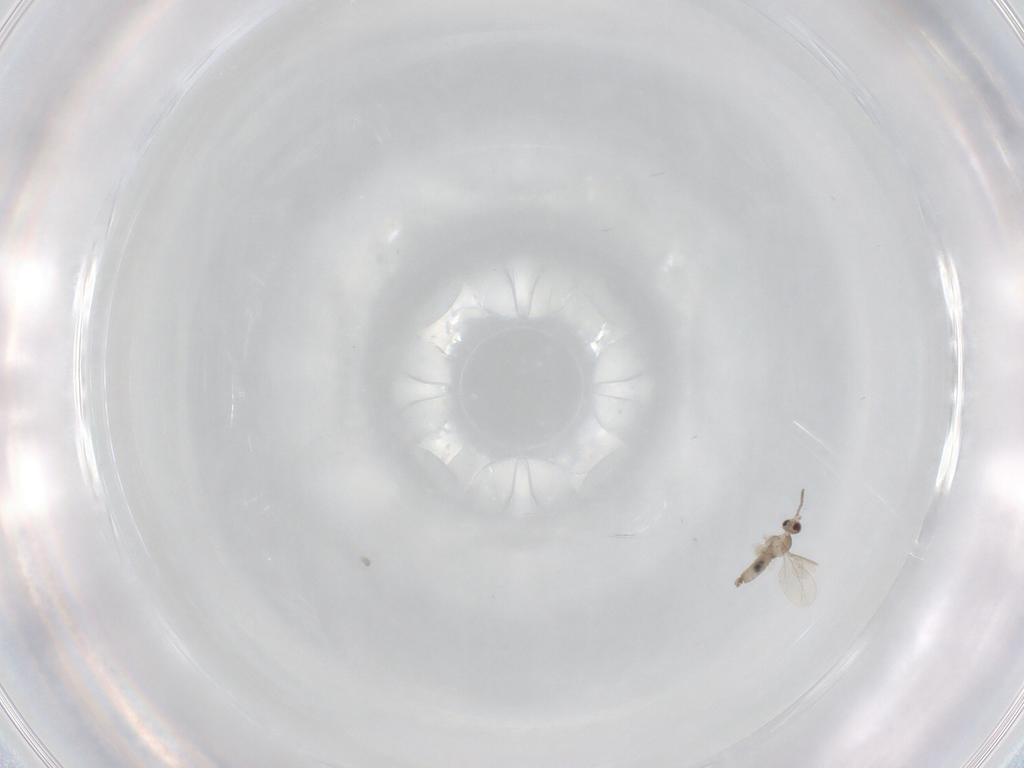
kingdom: Animalia
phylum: Arthropoda
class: Insecta
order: Diptera
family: Cecidomyiidae
